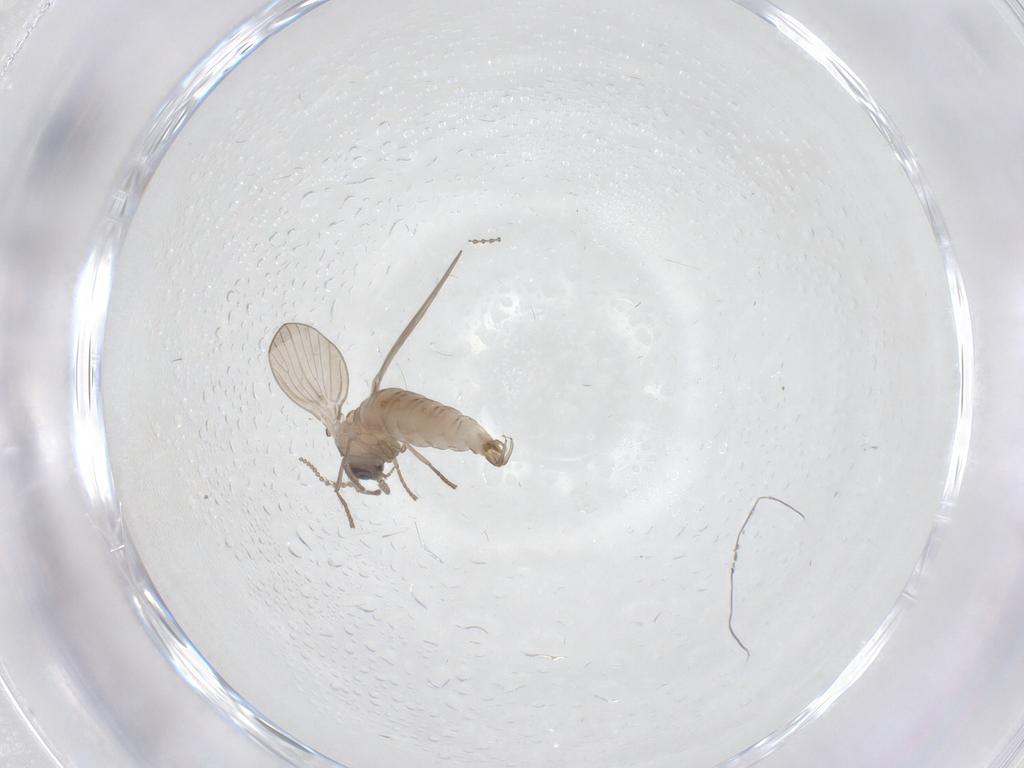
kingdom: Animalia
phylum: Arthropoda
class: Insecta
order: Diptera
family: Psychodidae
